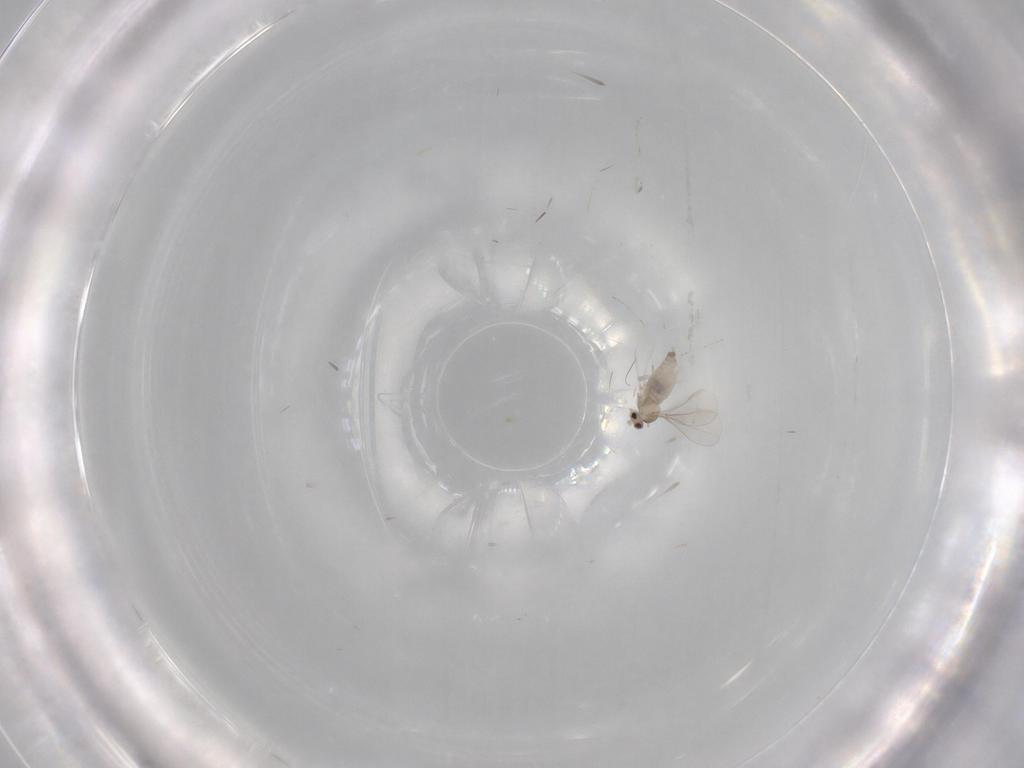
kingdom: Animalia
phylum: Arthropoda
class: Insecta
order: Diptera
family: Cecidomyiidae
